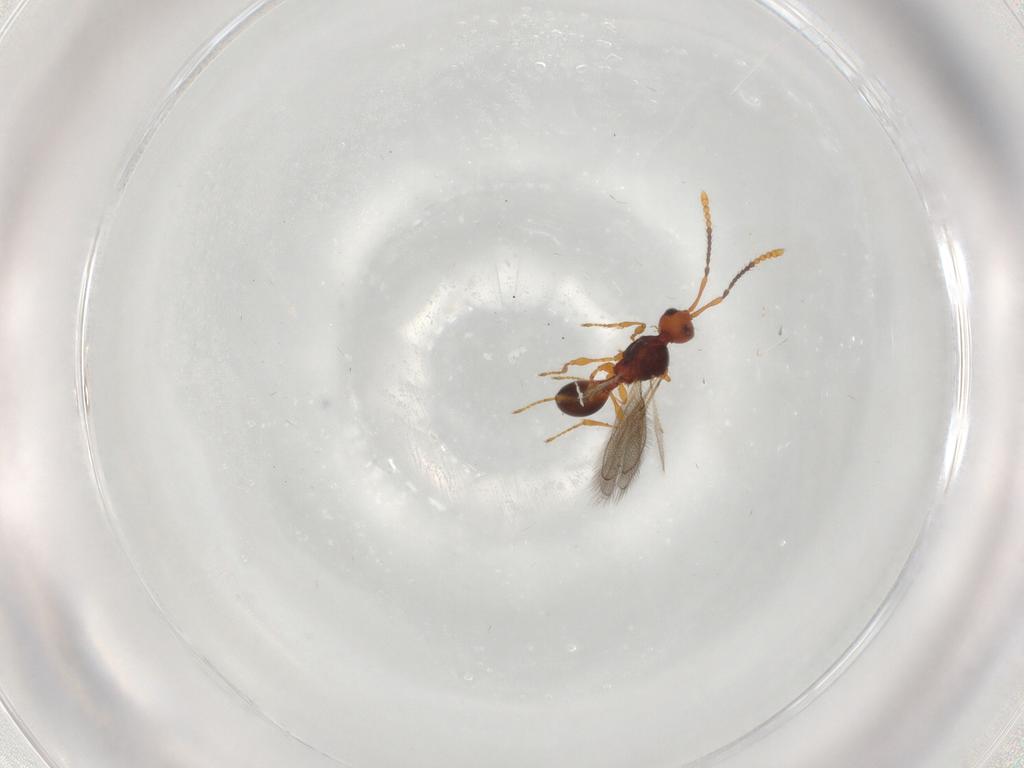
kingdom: Animalia
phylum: Arthropoda
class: Insecta
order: Hymenoptera
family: Diapriidae
